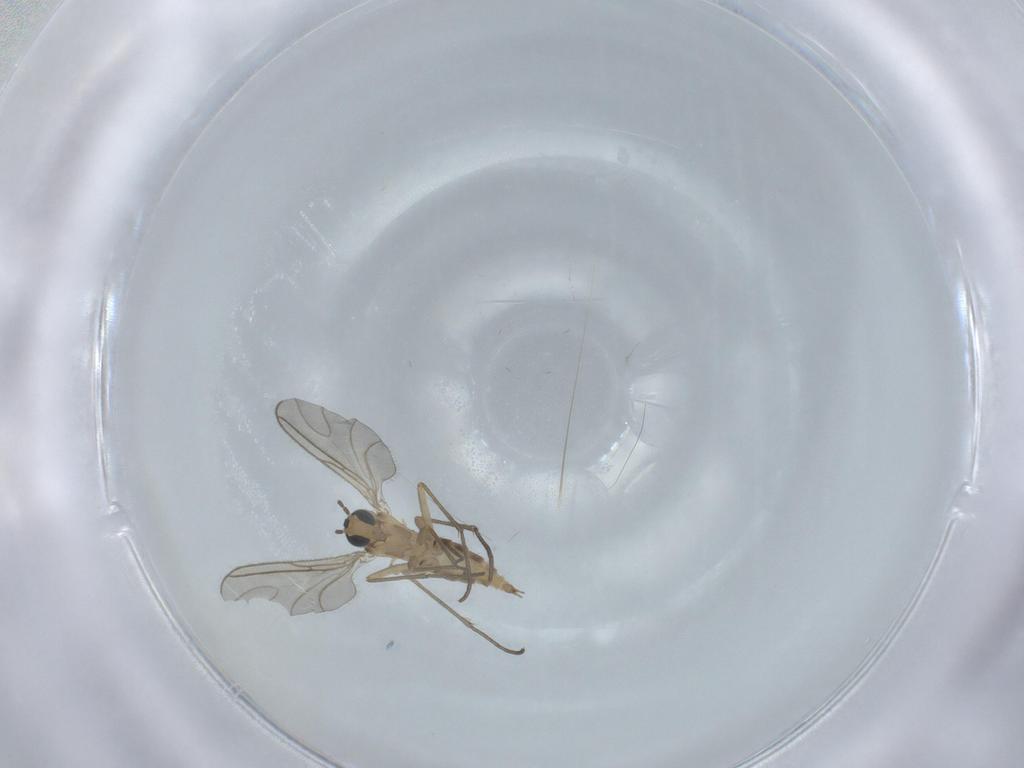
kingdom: Animalia
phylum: Arthropoda
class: Insecta
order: Diptera
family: Sciaridae
